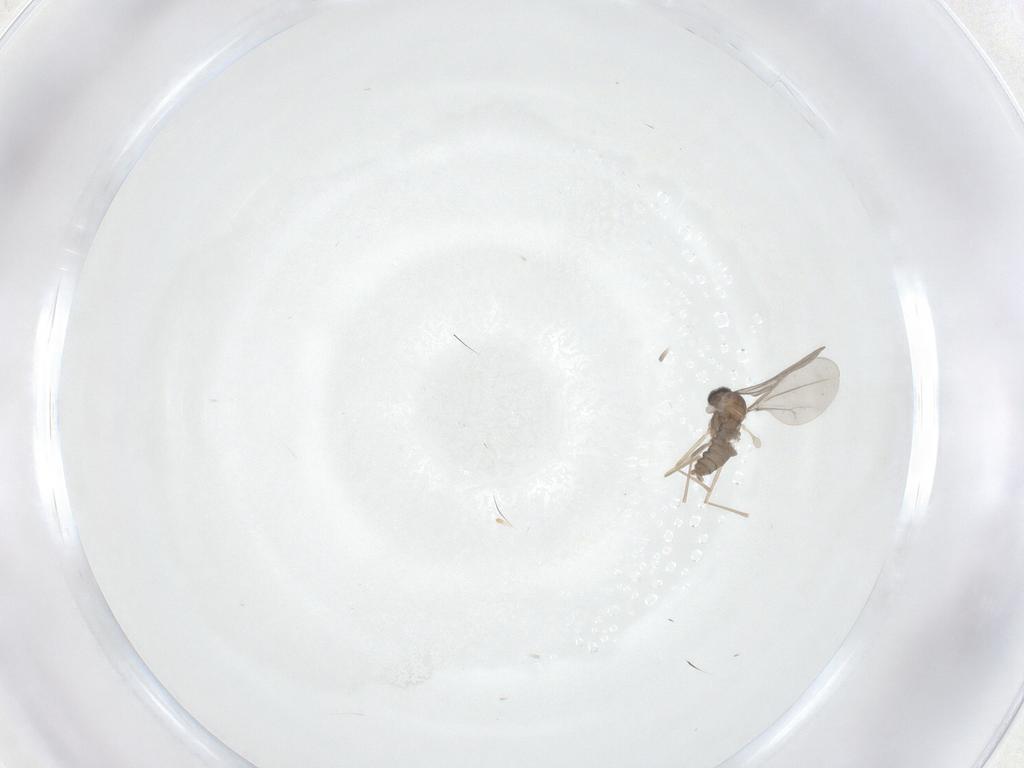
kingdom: Animalia
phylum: Arthropoda
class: Insecta
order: Diptera
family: Cecidomyiidae
